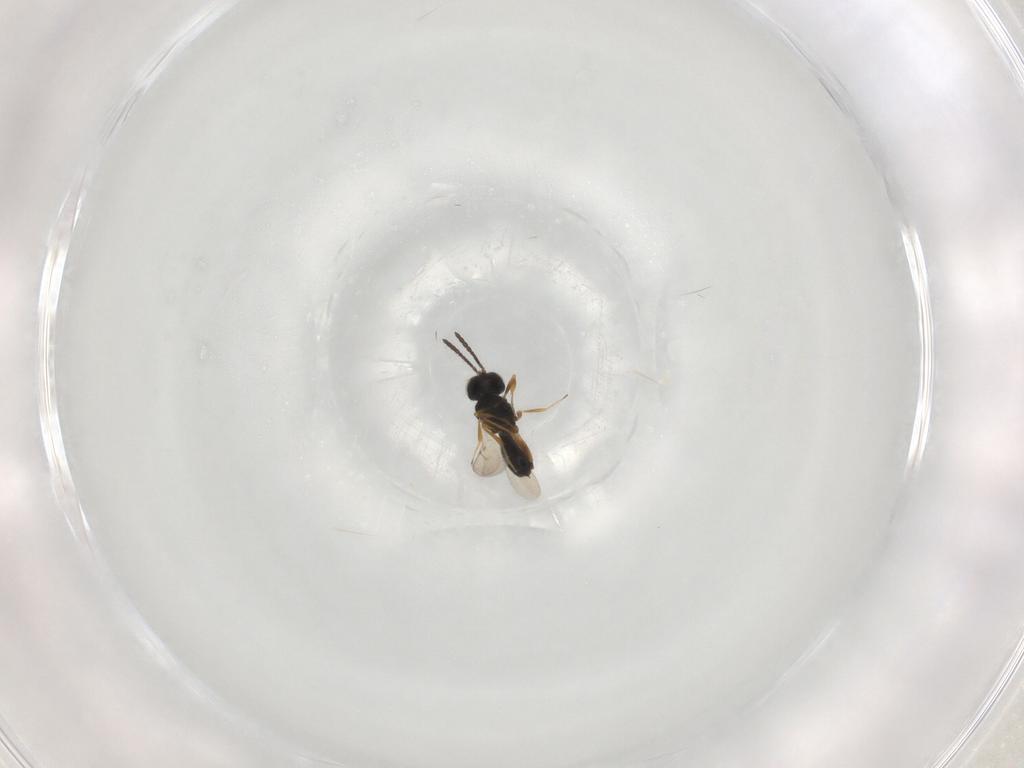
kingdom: Animalia
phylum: Arthropoda
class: Insecta
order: Hymenoptera
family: Scelionidae
